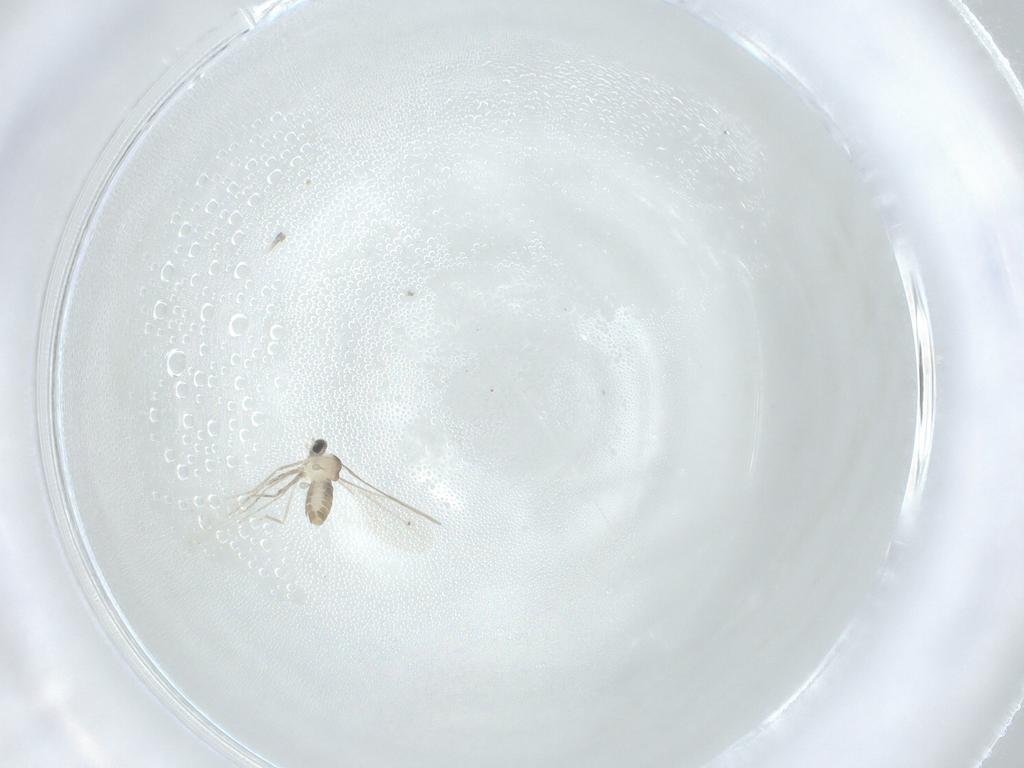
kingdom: Animalia
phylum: Arthropoda
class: Insecta
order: Diptera
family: Cecidomyiidae
